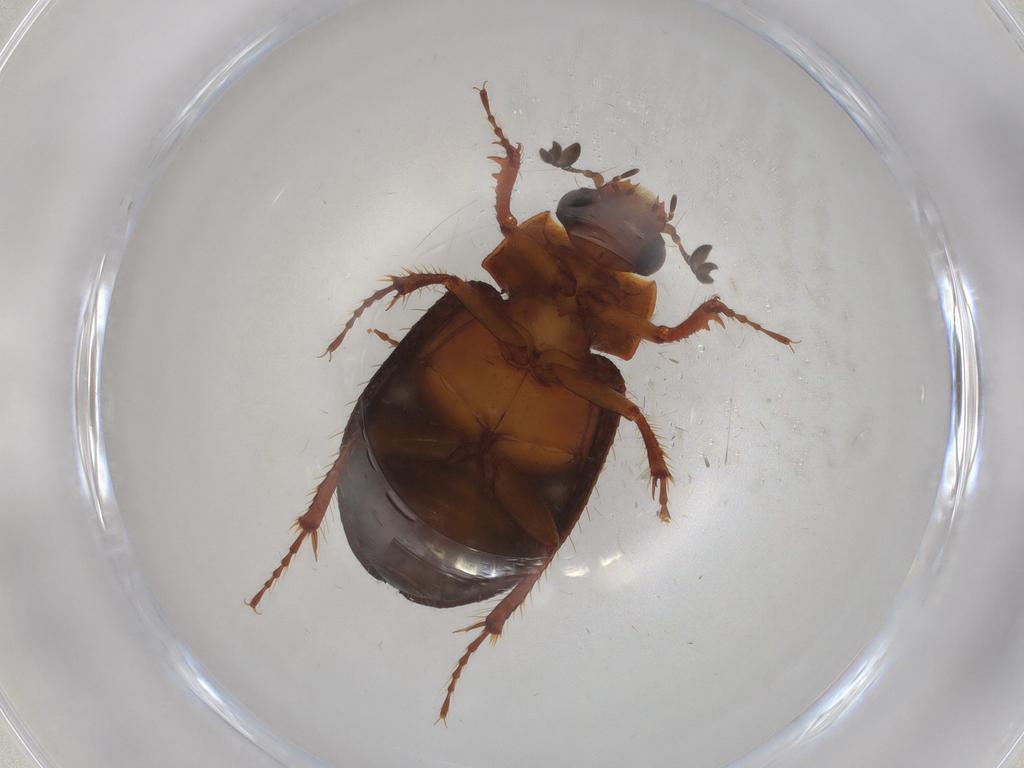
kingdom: Animalia
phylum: Arthropoda
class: Insecta
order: Coleoptera
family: Hybosoridae
